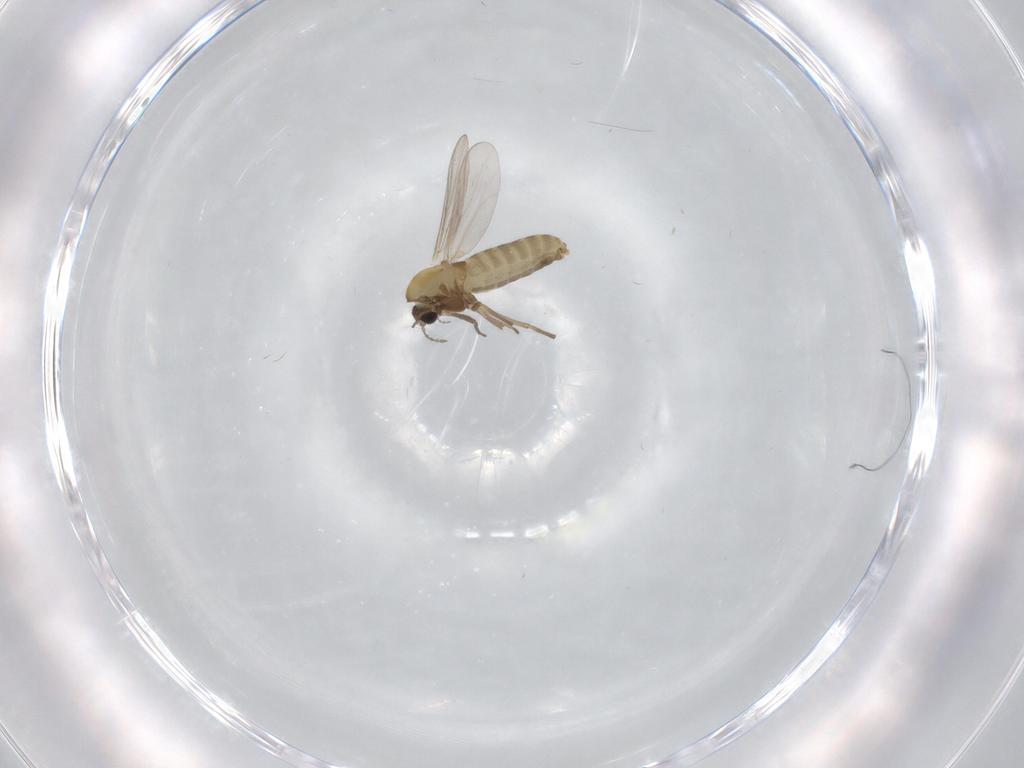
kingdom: Animalia
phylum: Arthropoda
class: Insecta
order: Diptera
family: Chironomidae
